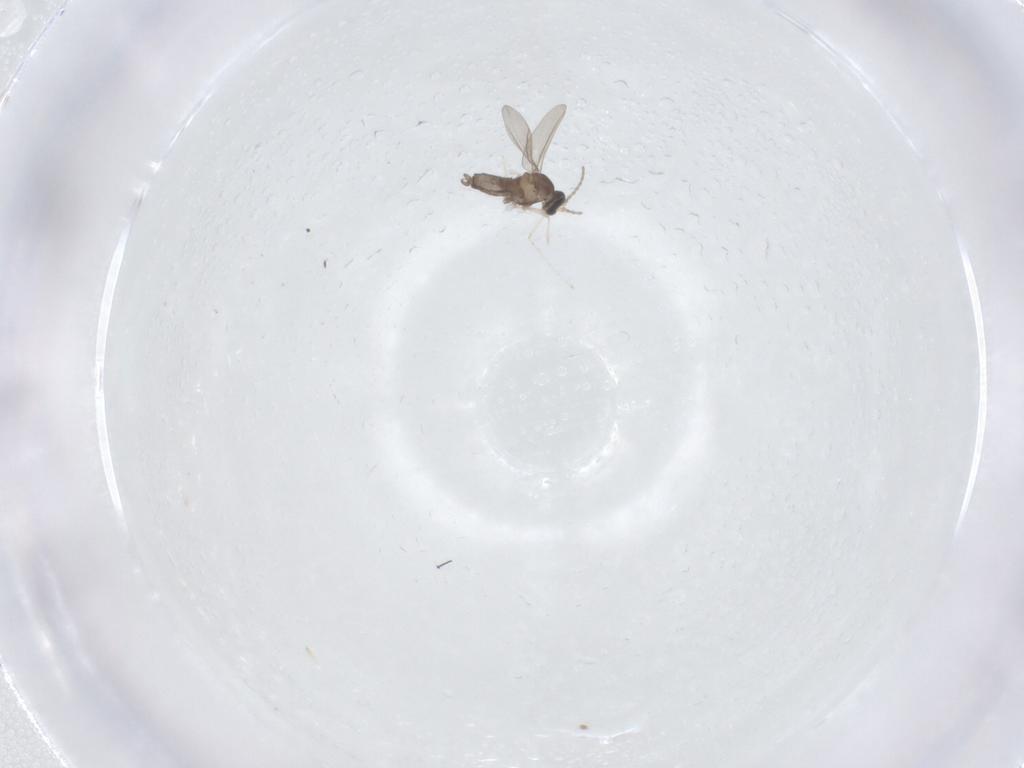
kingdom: Animalia
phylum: Arthropoda
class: Insecta
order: Diptera
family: Cecidomyiidae
